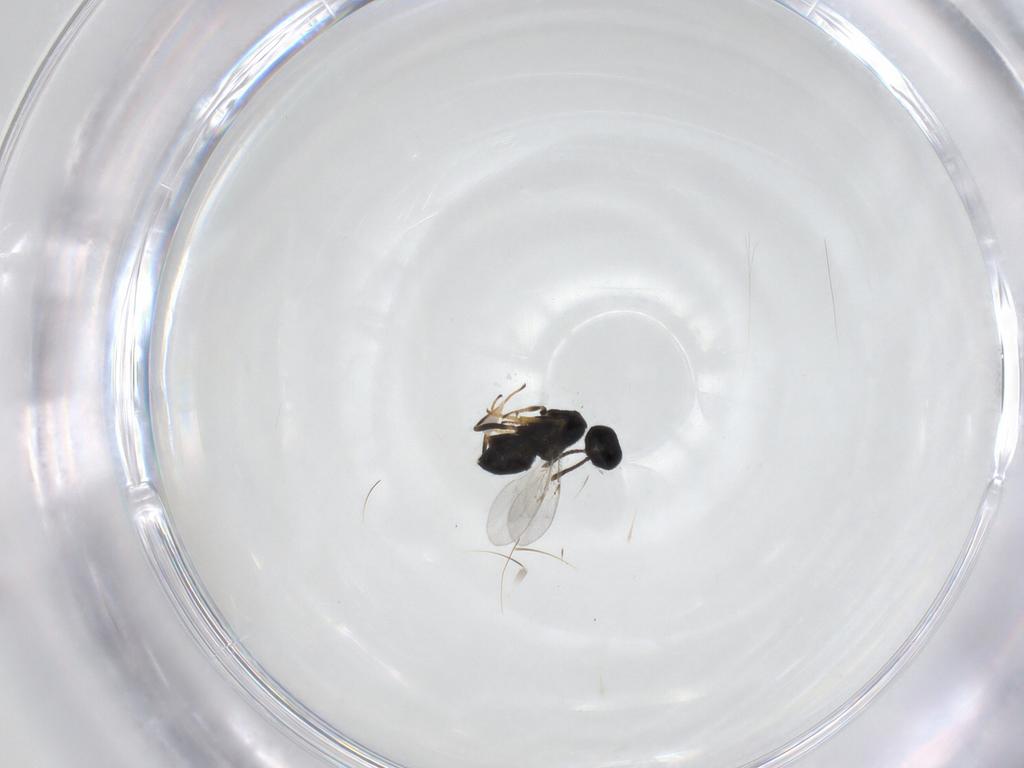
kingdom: Animalia
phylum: Arthropoda
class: Insecta
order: Hymenoptera
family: Encyrtidae
